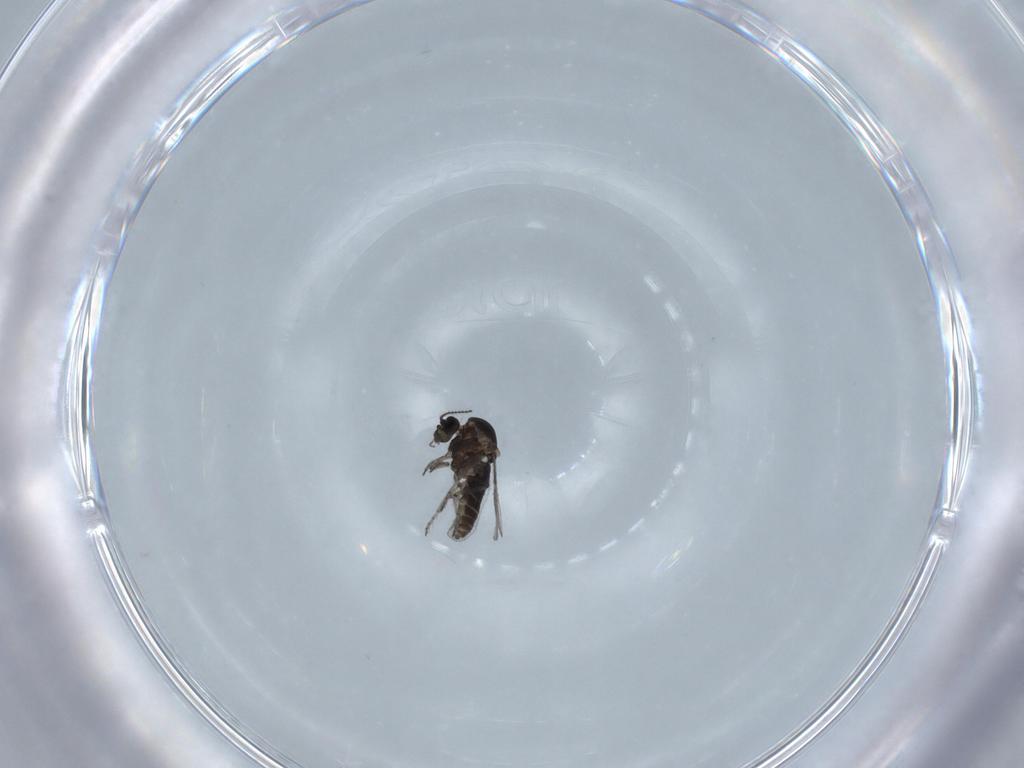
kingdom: Animalia
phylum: Arthropoda
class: Insecta
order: Diptera
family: Ceratopogonidae
